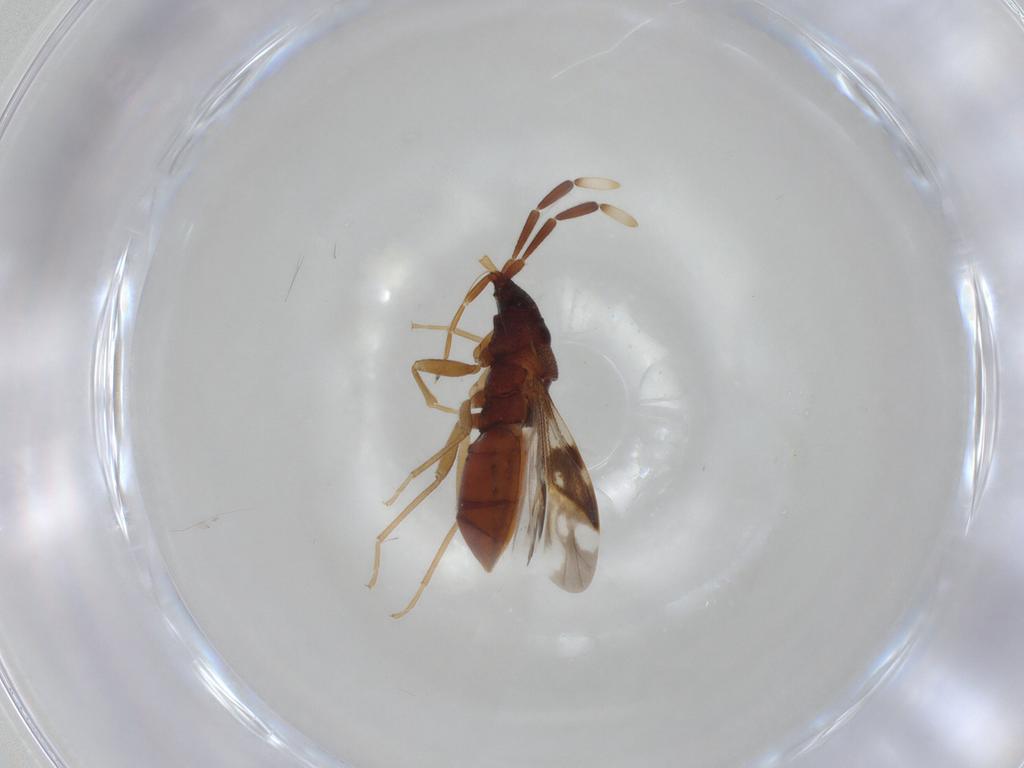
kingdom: Animalia
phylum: Arthropoda
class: Insecta
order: Hemiptera
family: Rhyparochromidae
